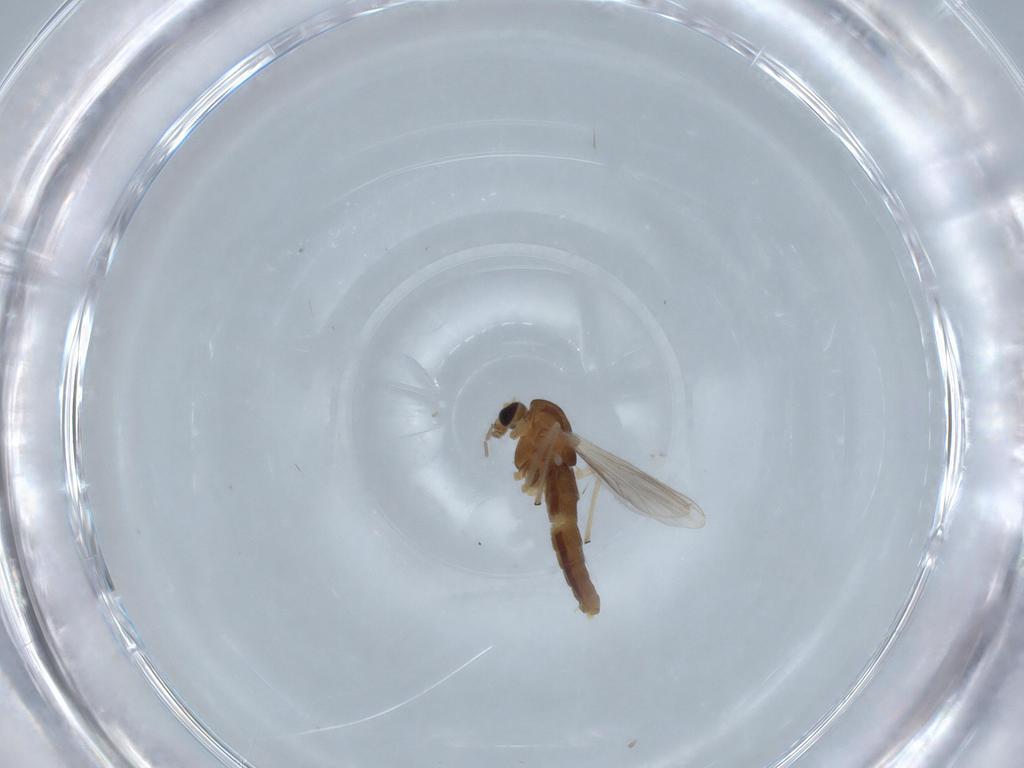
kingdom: Animalia
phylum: Arthropoda
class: Insecta
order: Diptera
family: Chironomidae
